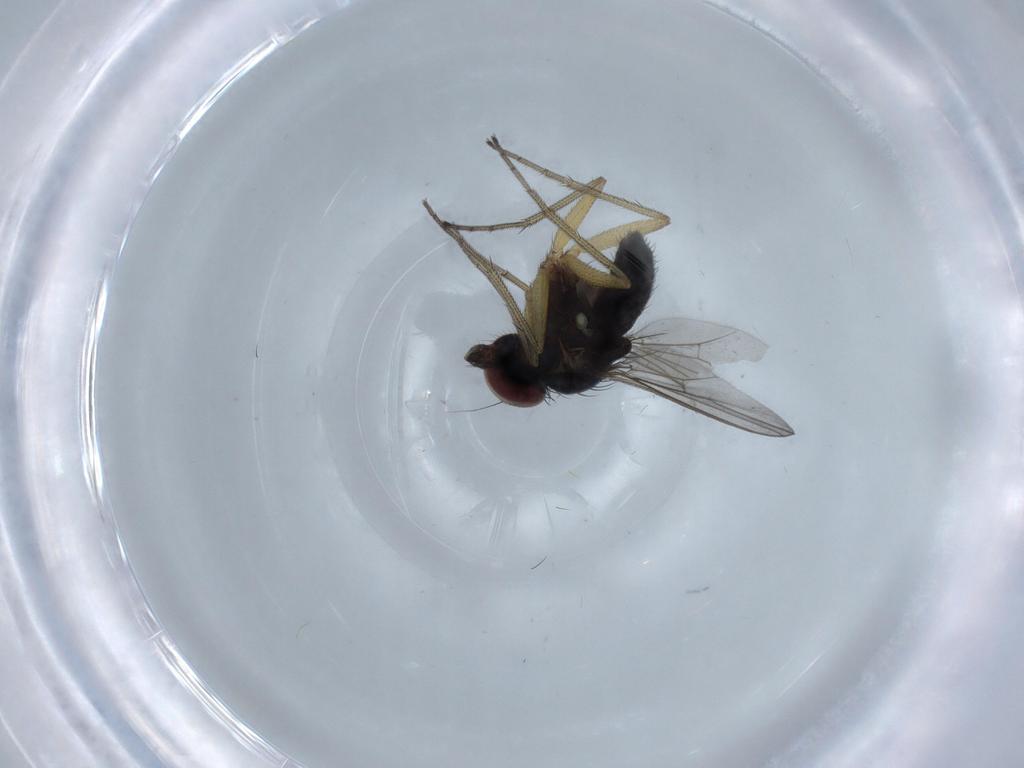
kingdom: Animalia
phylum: Arthropoda
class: Insecta
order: Diptera
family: Dolichopodidae
